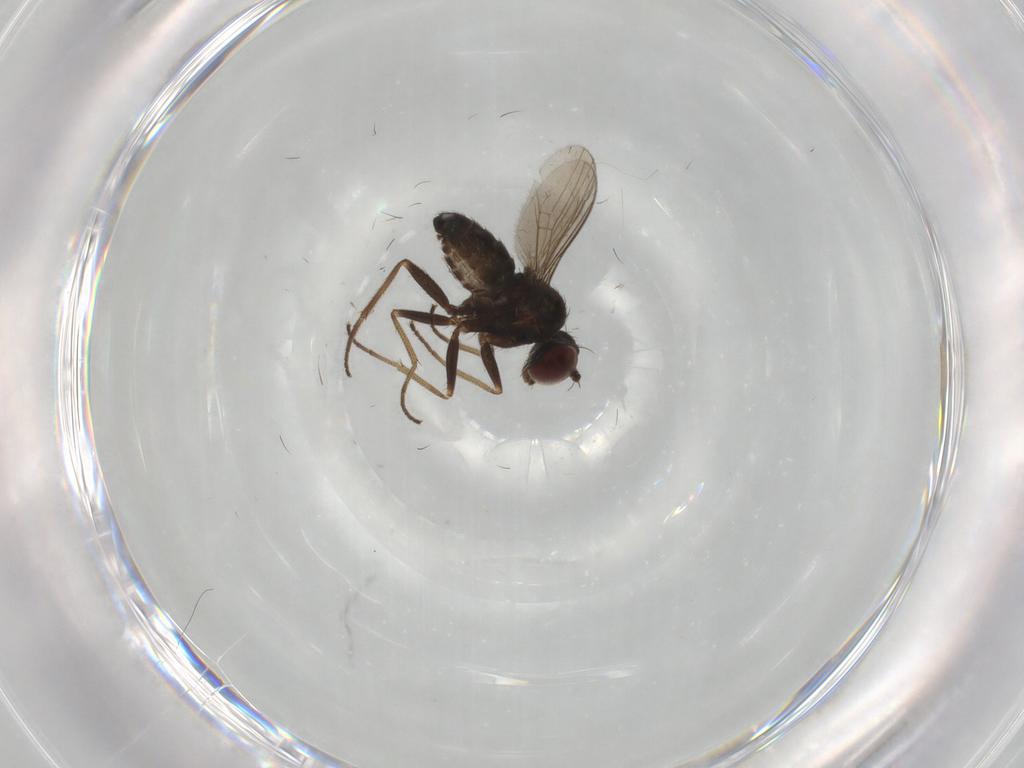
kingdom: Animalia
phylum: Arthropoda
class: Insecta
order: Diptera
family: Dolichopodidae
